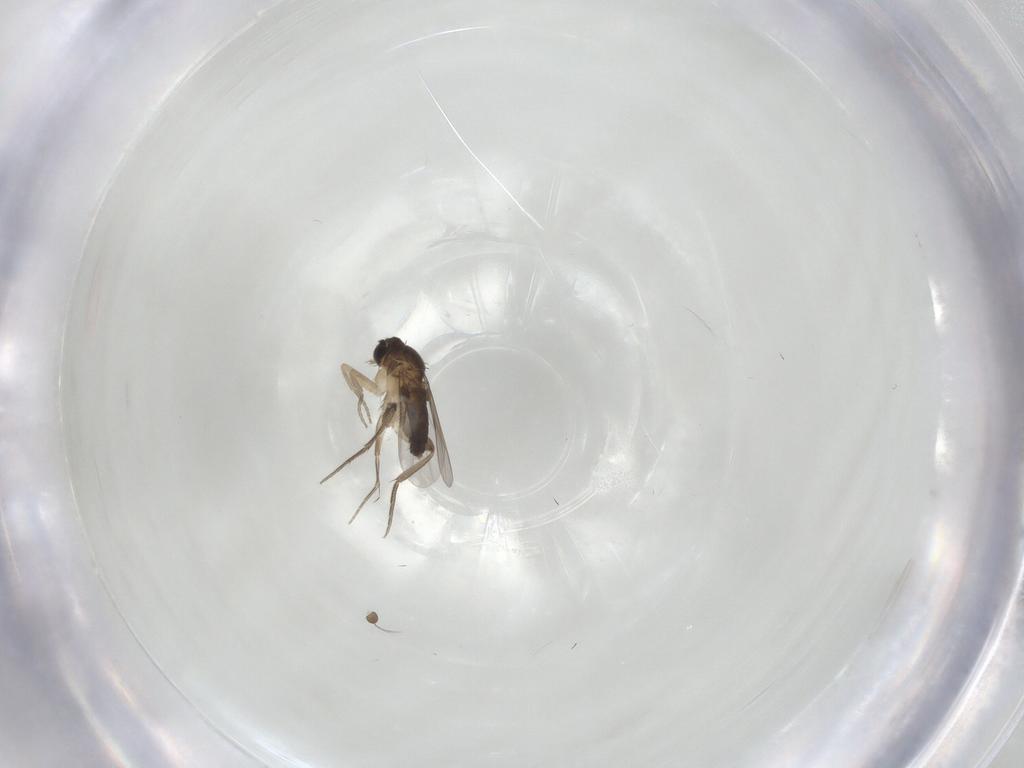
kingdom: Animalia
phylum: Arthropoda
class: Insecta
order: Diptera
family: Phoridae
